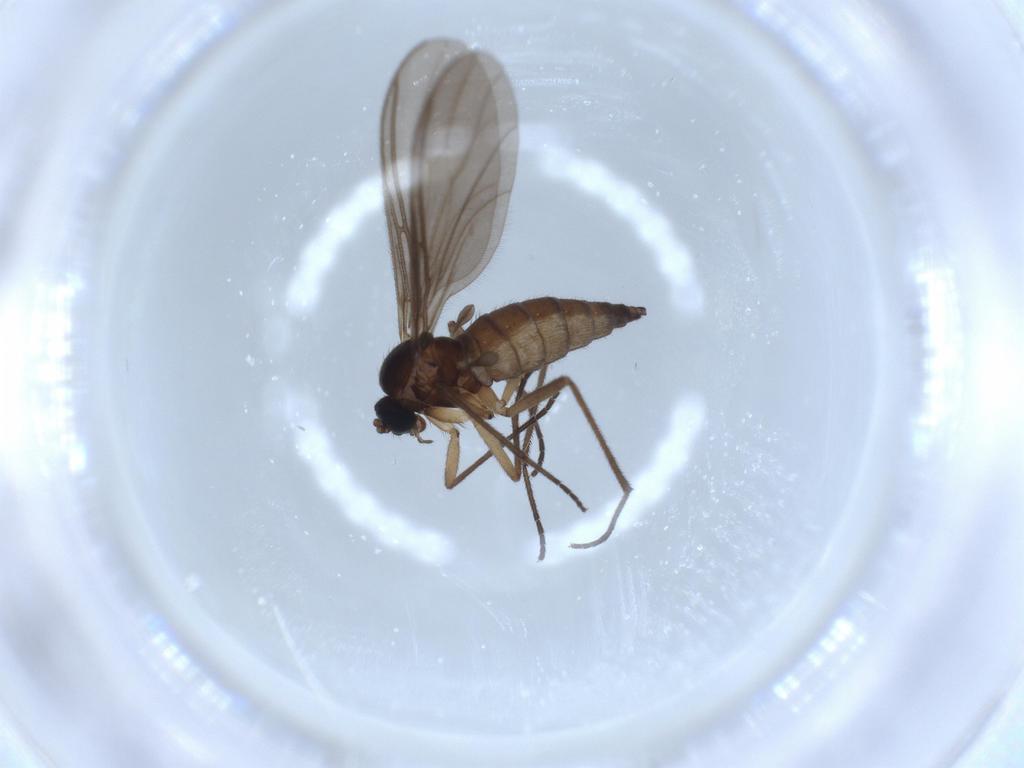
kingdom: Animalia
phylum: Arthropoda
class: Insecta
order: Diptera
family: Sciaridae
